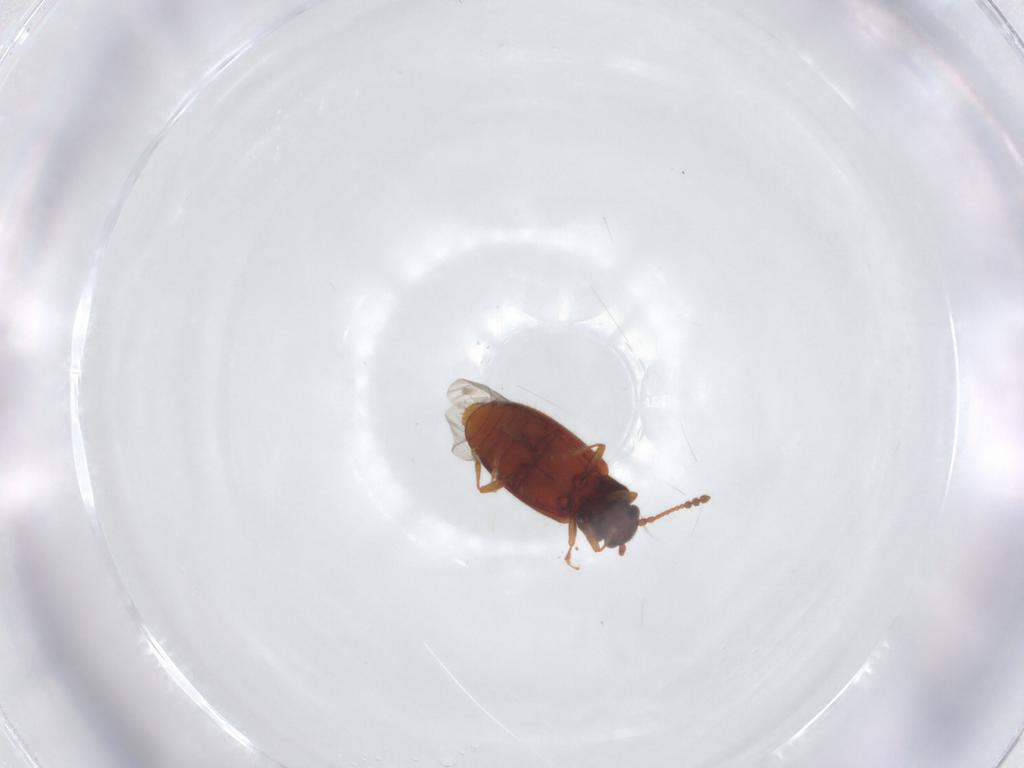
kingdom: Animalia
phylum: Arthropoda
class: Insecta
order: Coleoptera
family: Cryptophagidae
